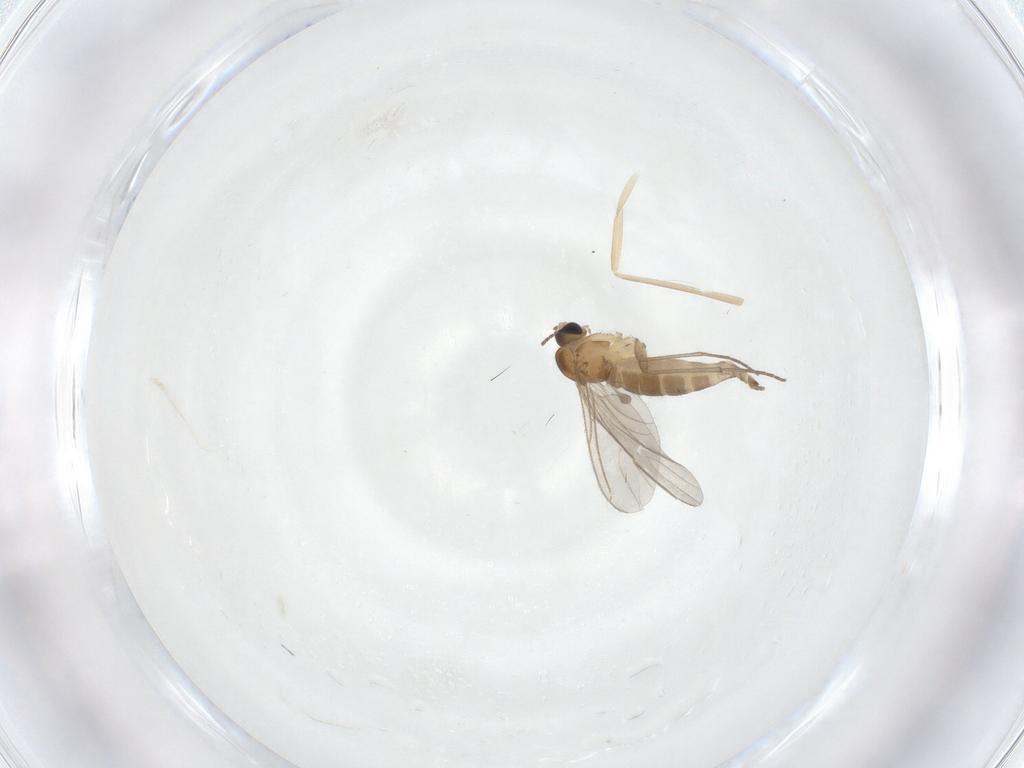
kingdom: Animalia
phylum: Arthropoda
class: Insecta
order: Diptera
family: Sciaridae
